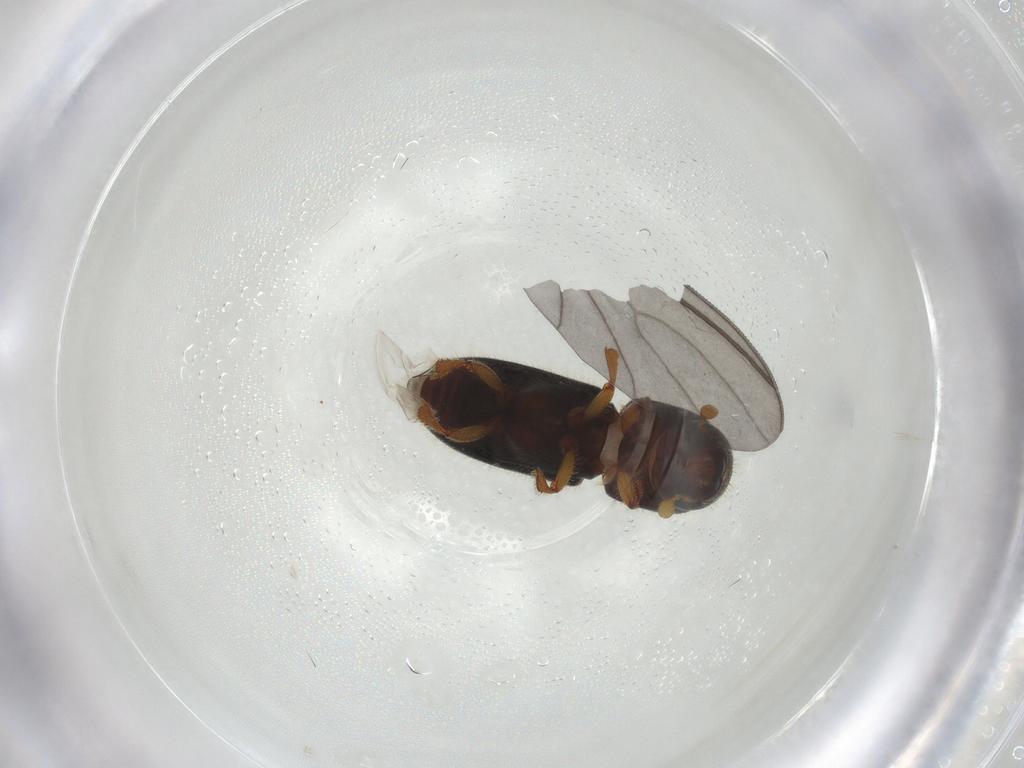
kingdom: Animalia
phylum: Arthropoda
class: Insecta
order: Coleoptera
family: Curculionidae
